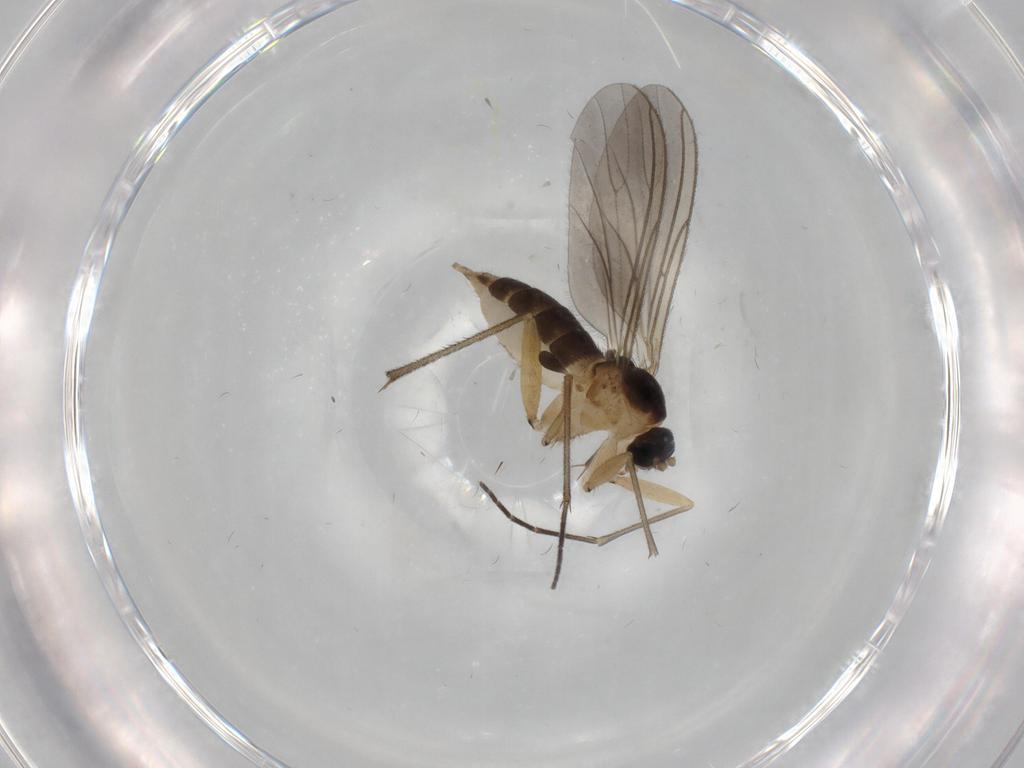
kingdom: Animalia
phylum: Arthropoda
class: Insecta
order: Diptera
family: Sciaridae
